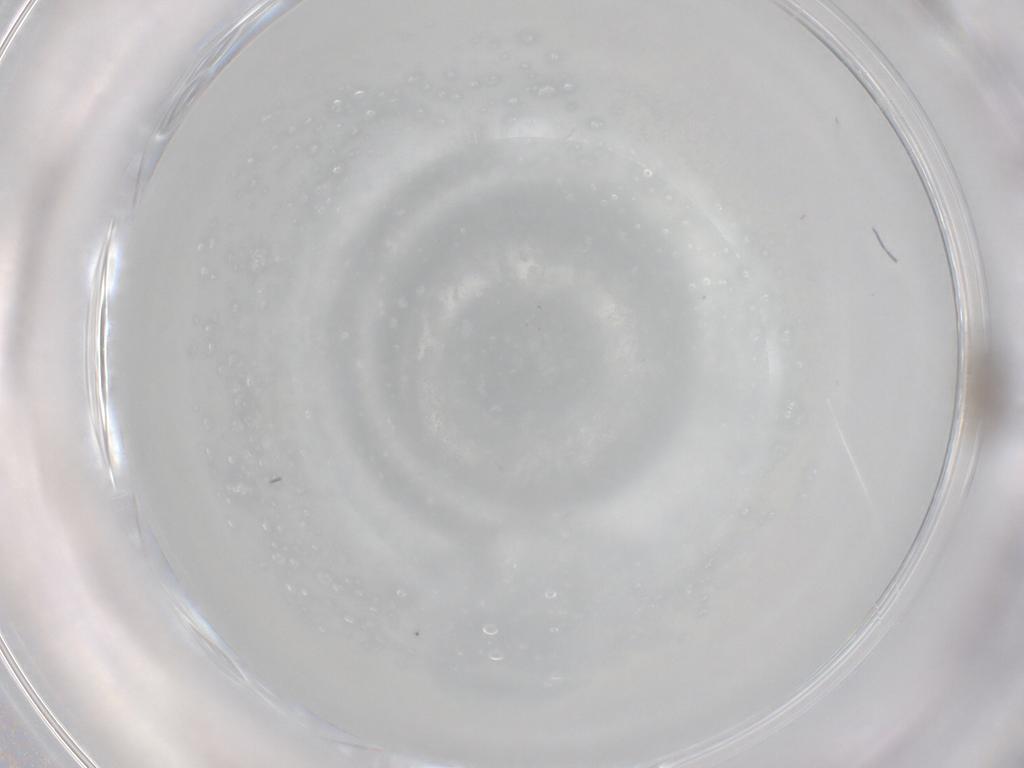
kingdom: Animalia
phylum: Arthropoda
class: Insecta
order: Diptera
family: Cecidomyiidae
